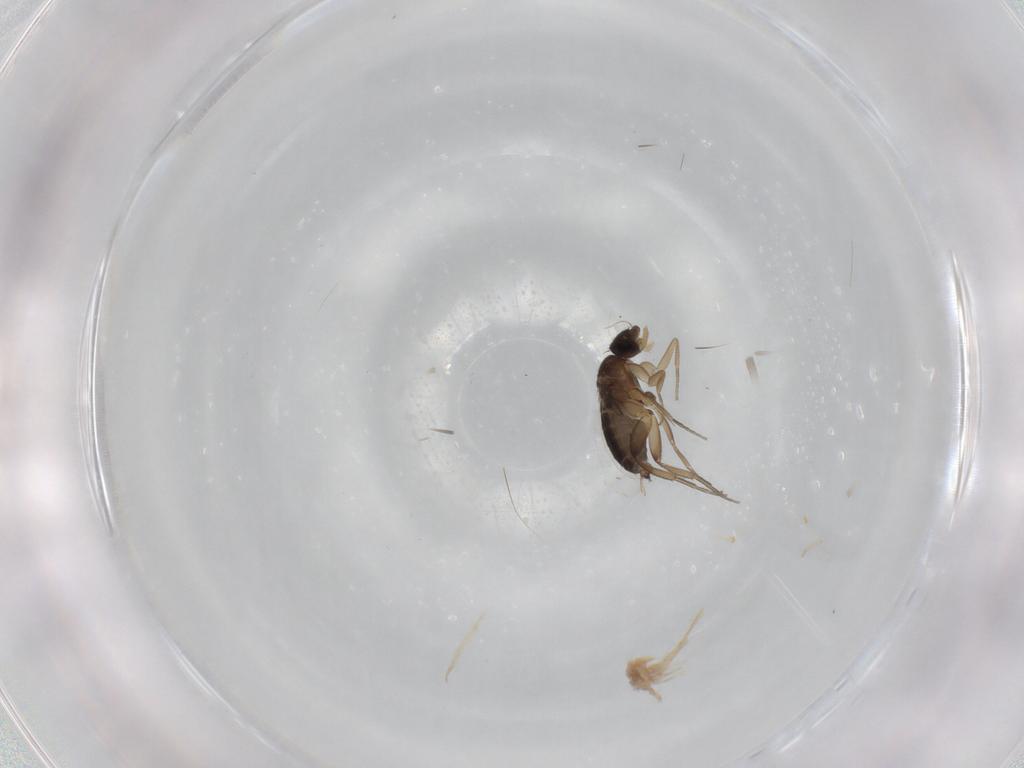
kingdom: Animalia
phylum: Arthropoda
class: Insecta
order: Diptera
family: Phoridae
